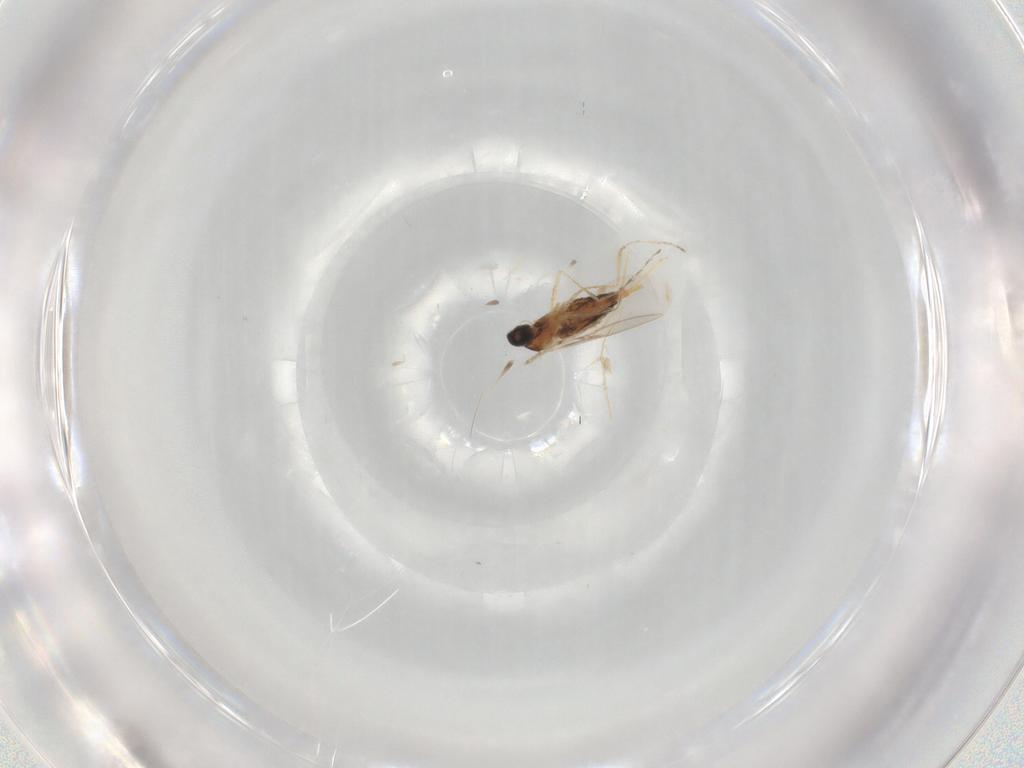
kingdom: Animalia
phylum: Arthropoda
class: Insecta
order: Diptera
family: Cecidomyiidae
